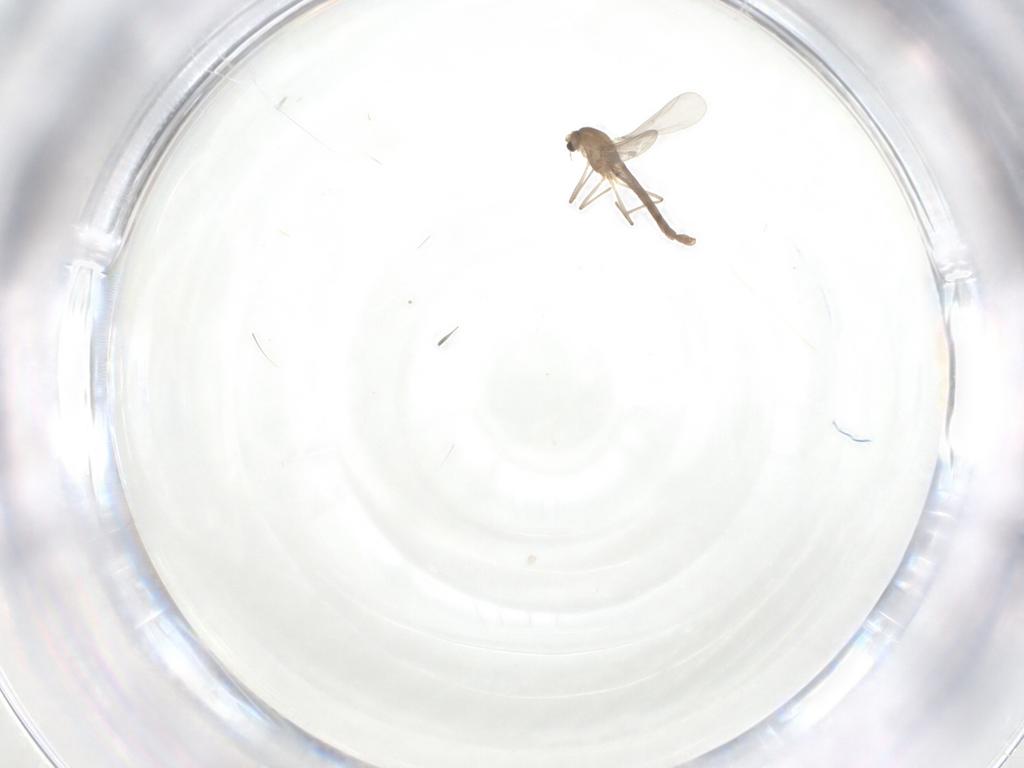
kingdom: Animalia
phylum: Arthropoda
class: Insecta
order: Diptera
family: Chironomidae
